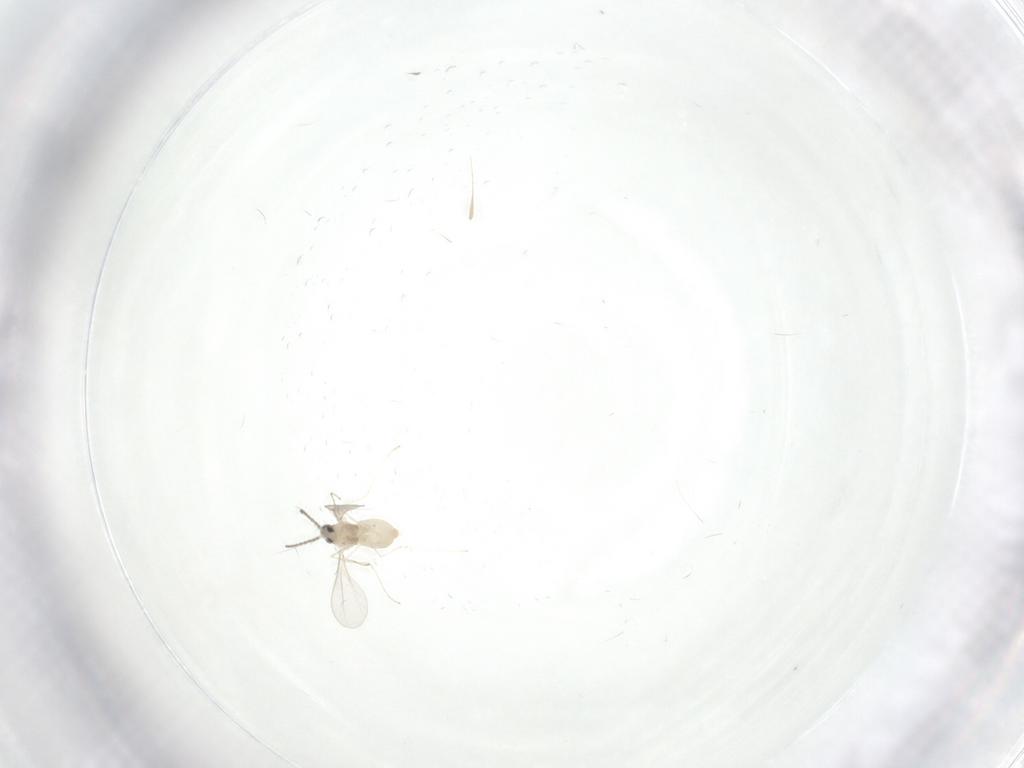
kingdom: Animalia
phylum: Arthropoda
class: Insecta
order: Diptera
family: Cecidomyiidae
